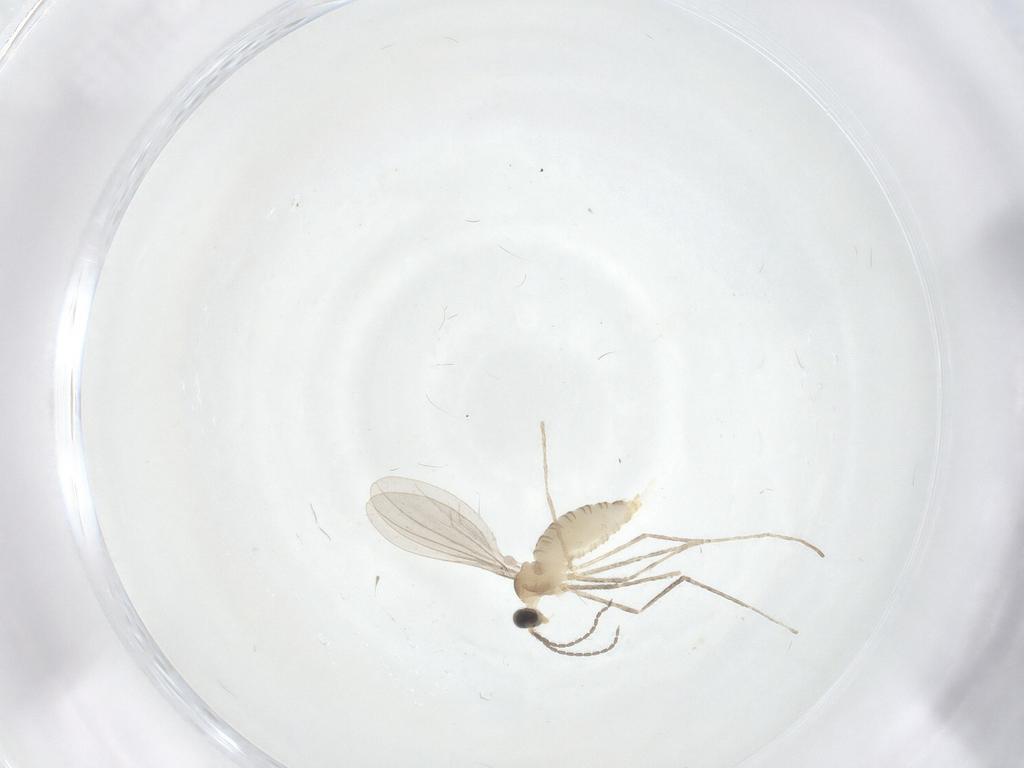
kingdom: Animalia
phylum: Arthropoda
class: Insecta
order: Diptera
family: Cecidomyiidae
